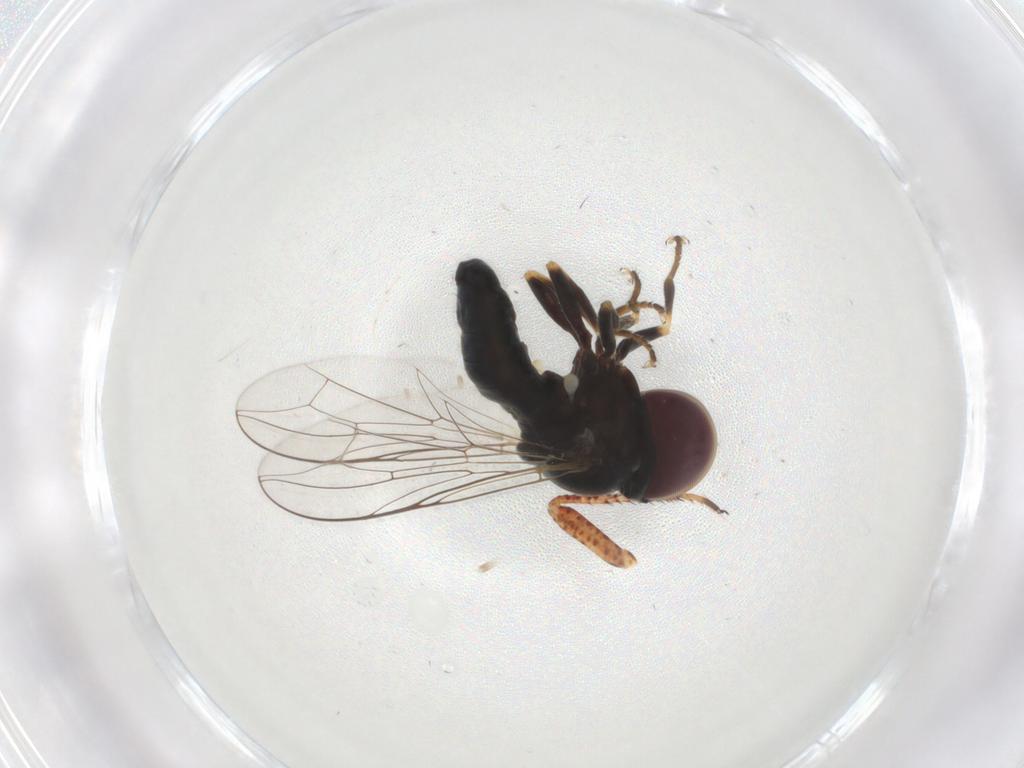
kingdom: Animalia
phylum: Arthropoda
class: Insecta
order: Diptera
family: Pipunculidae
